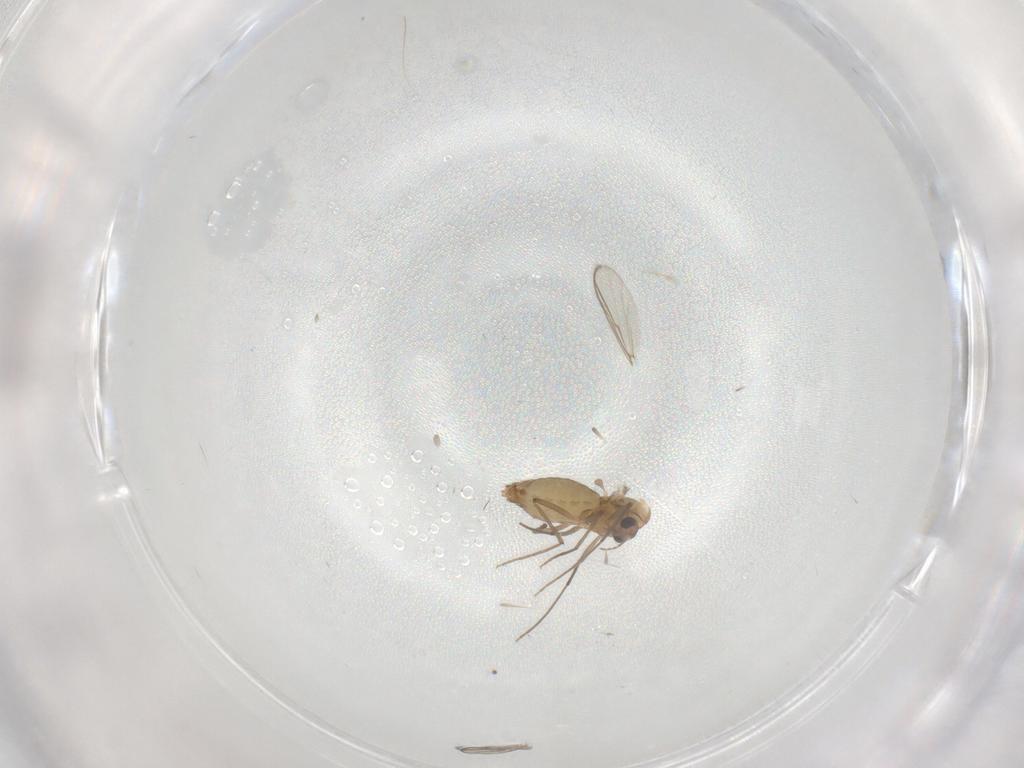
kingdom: Animalia
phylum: Arthropoda
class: Insecta
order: Diptera
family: Chironomidae
